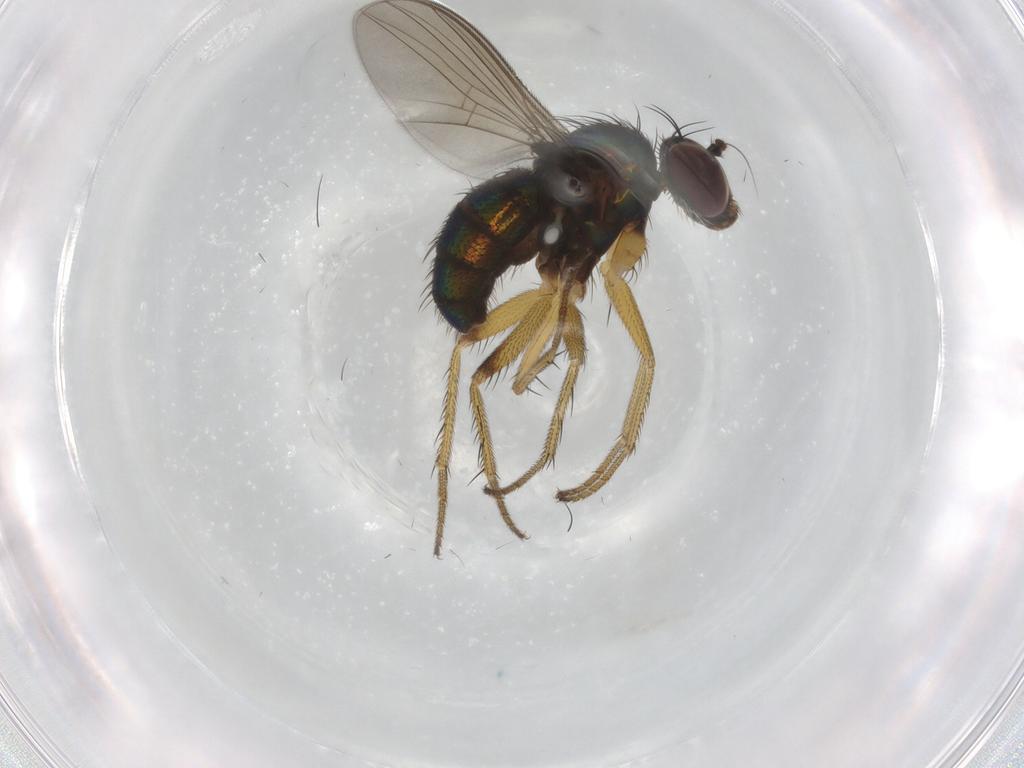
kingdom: Animalia
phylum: Arthropoda
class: Insecta
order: Diptera
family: Dolichopodidae
